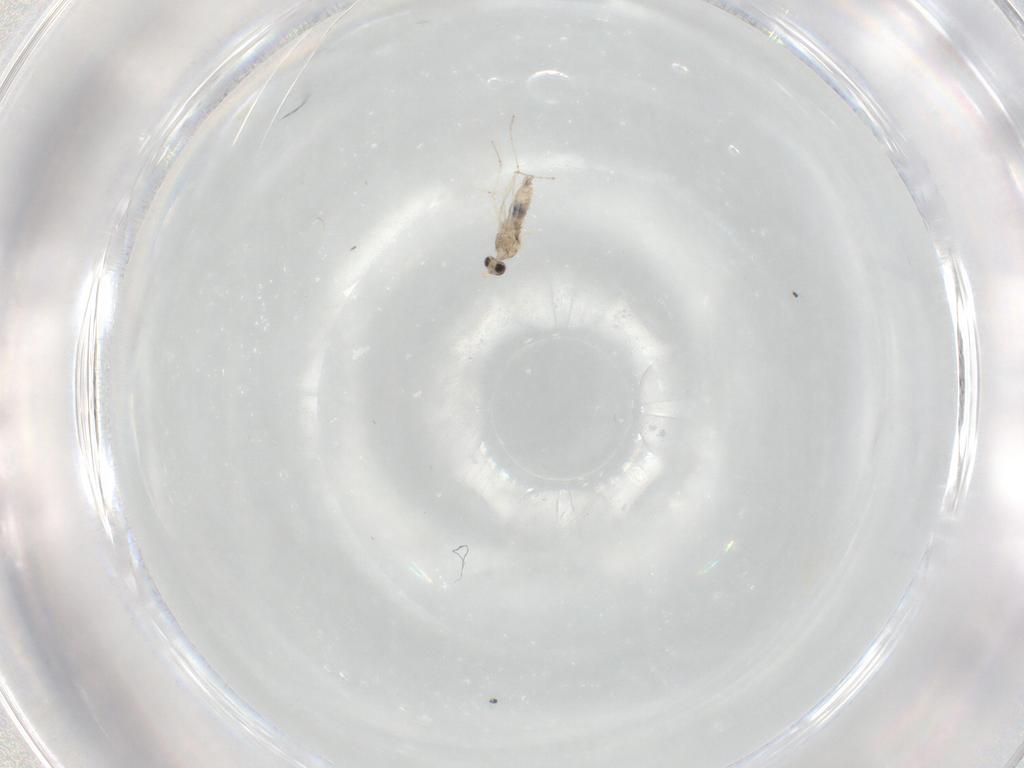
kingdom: Animalia
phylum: Arthropoda
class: Insecta
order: Diptera
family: Cecidomyiidae
